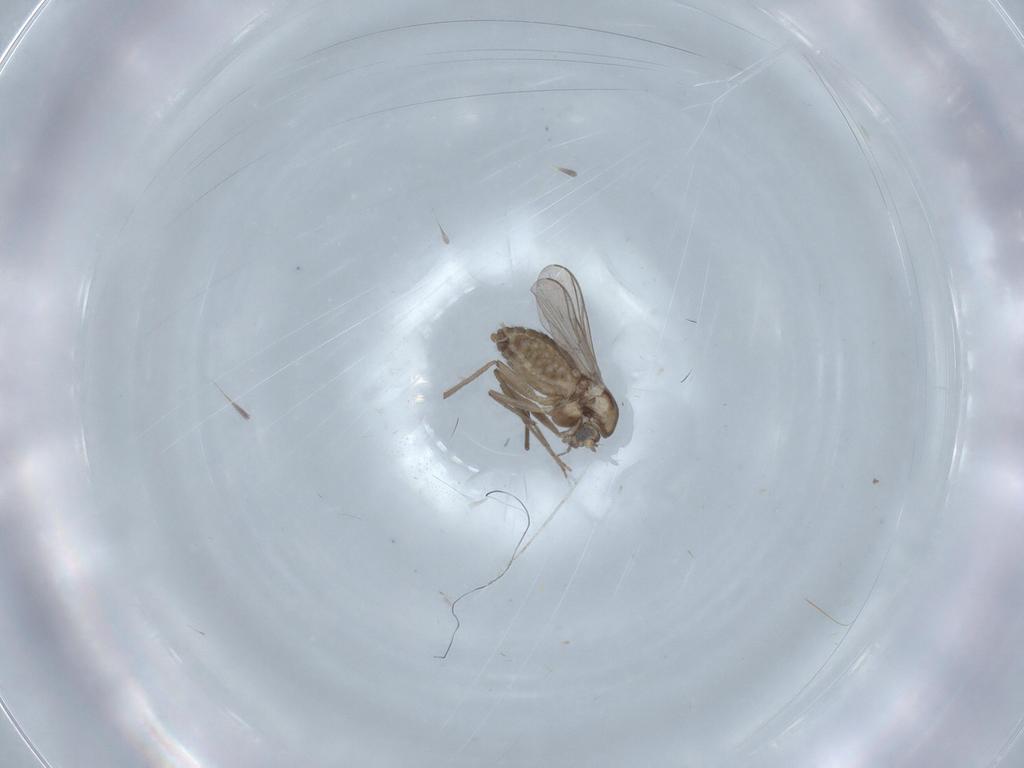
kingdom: Animalia
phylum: Arthropoda
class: Insecta
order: Diptera
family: Chironomidae
